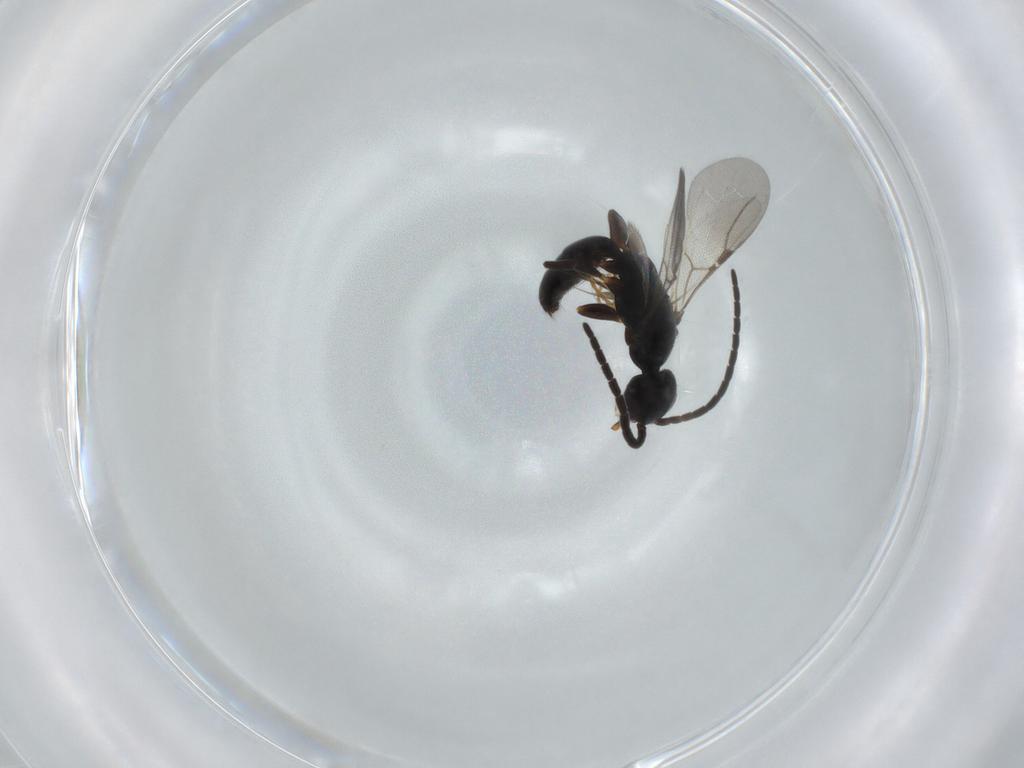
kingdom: Animalia
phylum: Arthropoda
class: Insecta
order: Hymenoptera
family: Bethylidae
